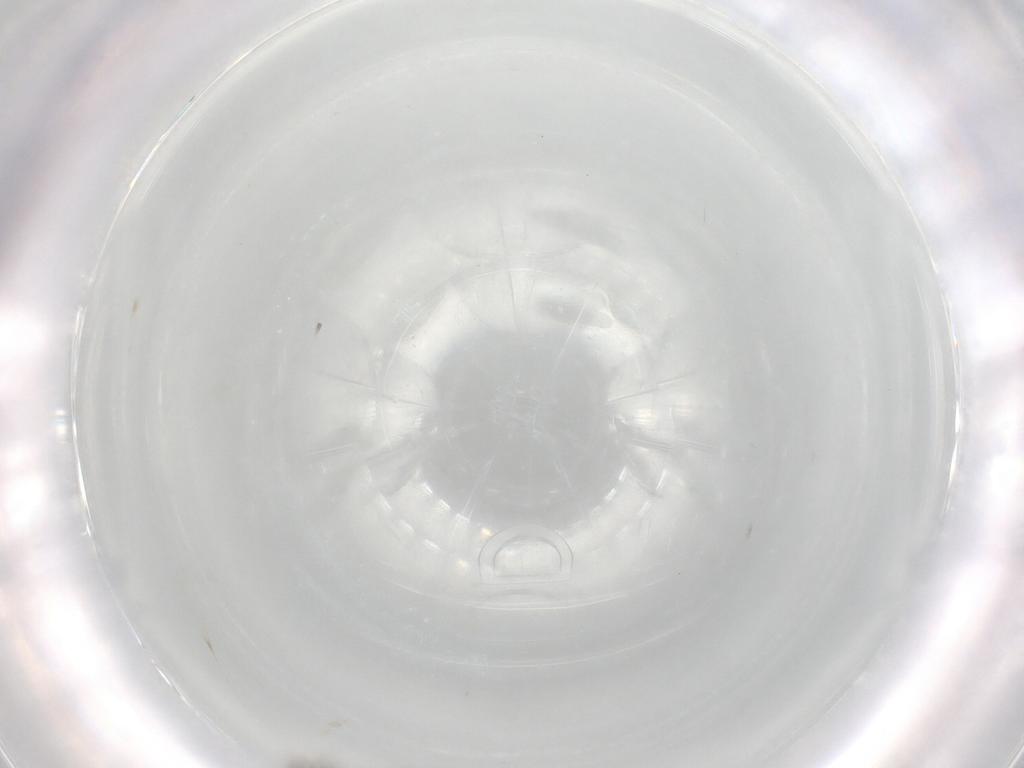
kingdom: Animalia
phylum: Arthropoda
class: Insecta
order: Diptera
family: Phoridae
